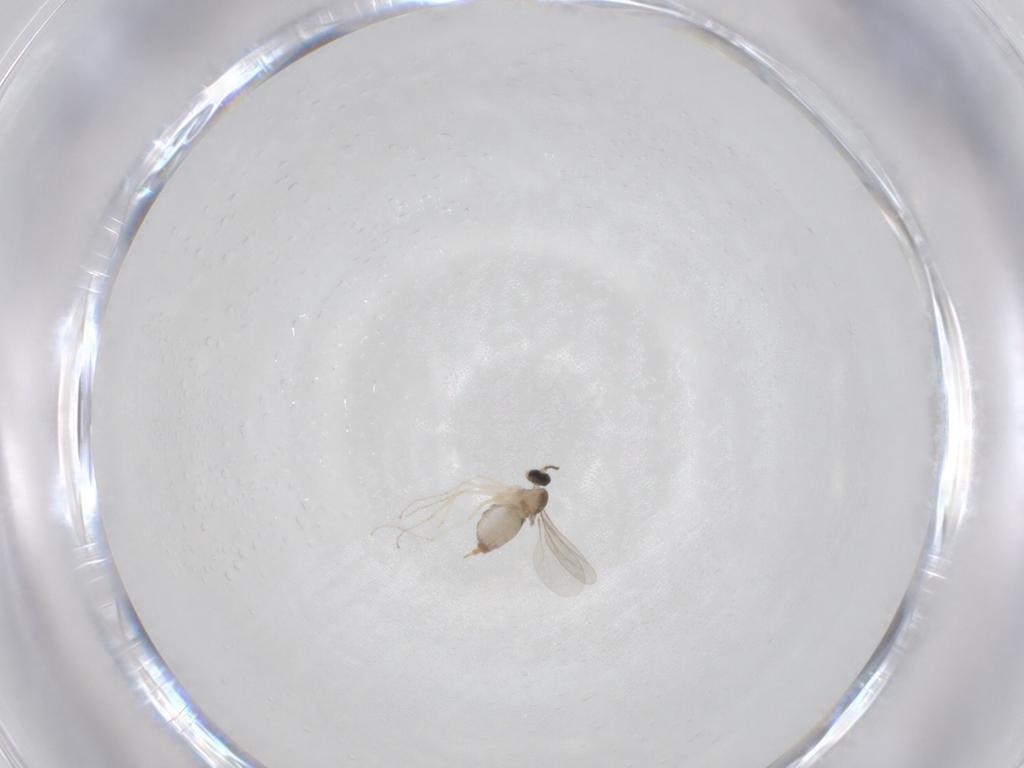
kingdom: Animalia
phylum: Arthropoda
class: Insecta
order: Diptera
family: Cecidomyiidae
